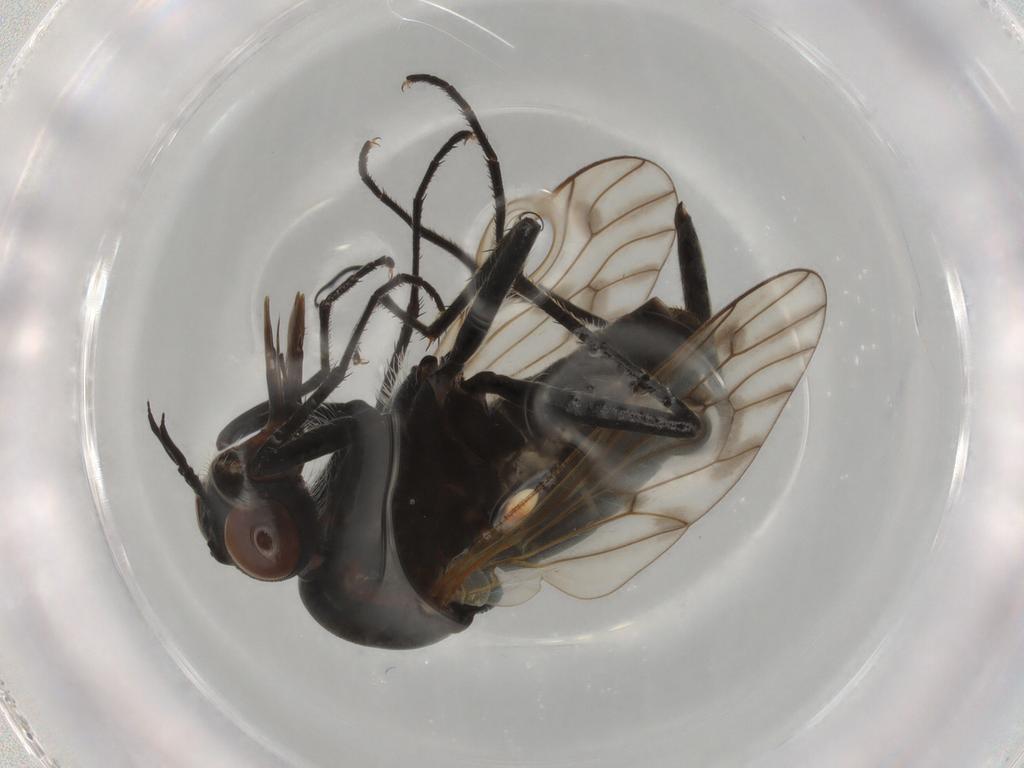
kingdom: Animalia
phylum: Arthropoda
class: Insecta
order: Diptera
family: Bombyliidae
